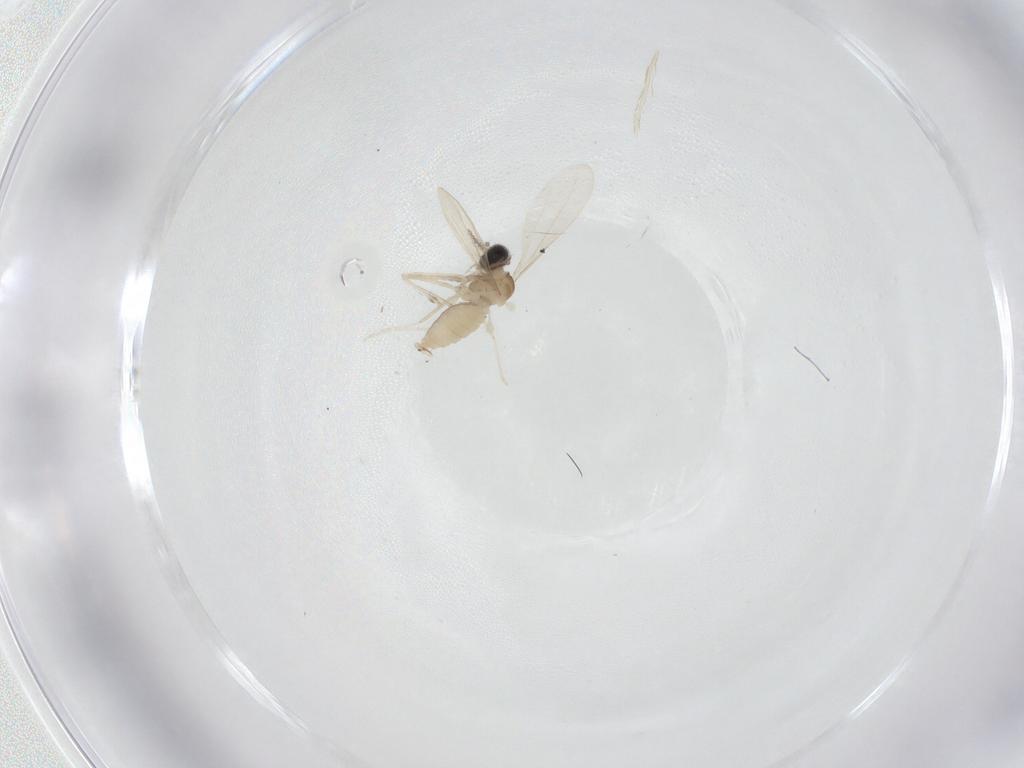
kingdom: Animalia
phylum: Arthropoda
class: Insecta
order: Diptera
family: Cecidomyiidae
